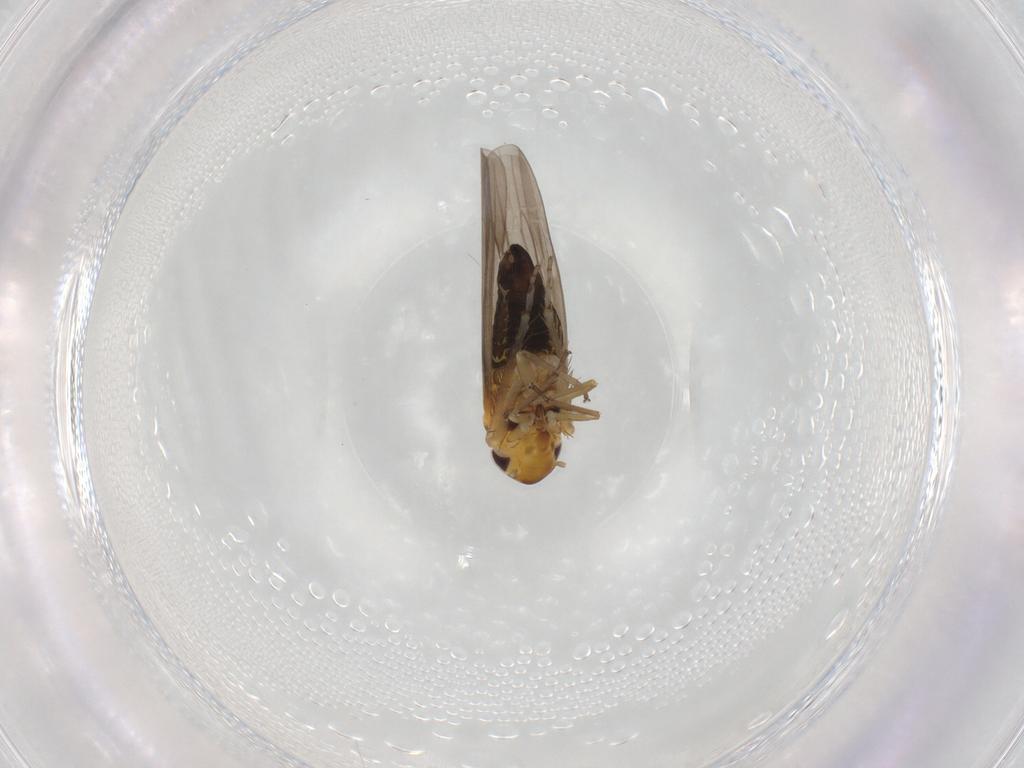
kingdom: Animalia
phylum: Arthropoda
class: Insecta
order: Hemiptera
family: Cicadellidae
